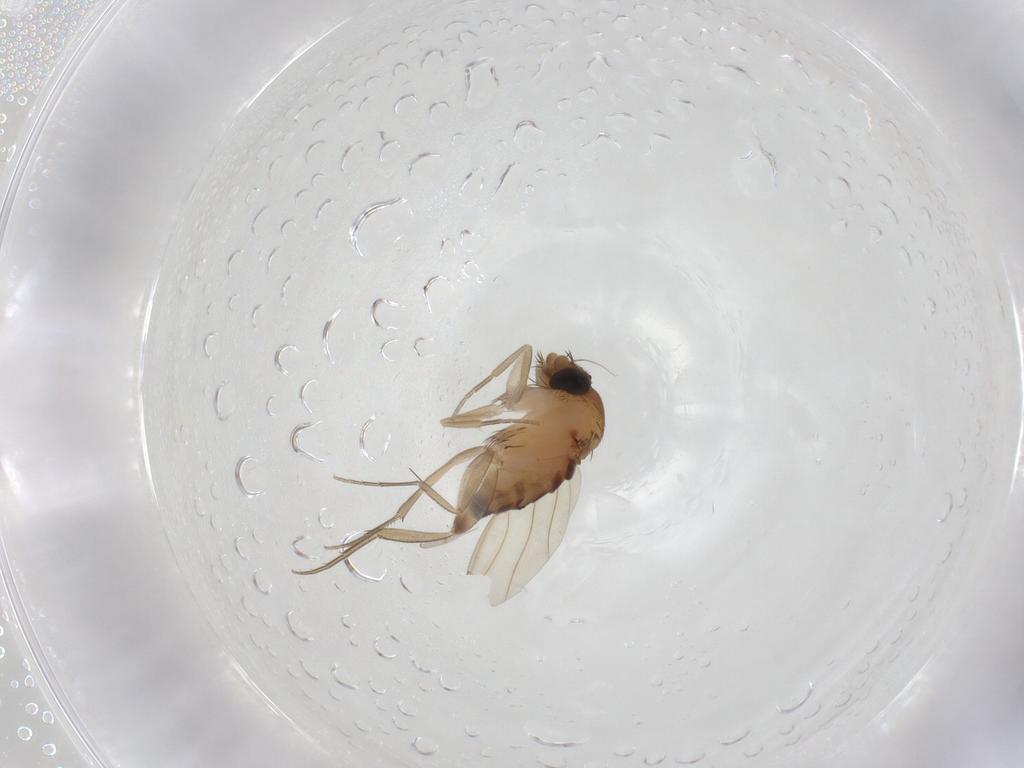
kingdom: Animalia
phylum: Arthropoda
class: Insecta
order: Diptera
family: Phoridae
